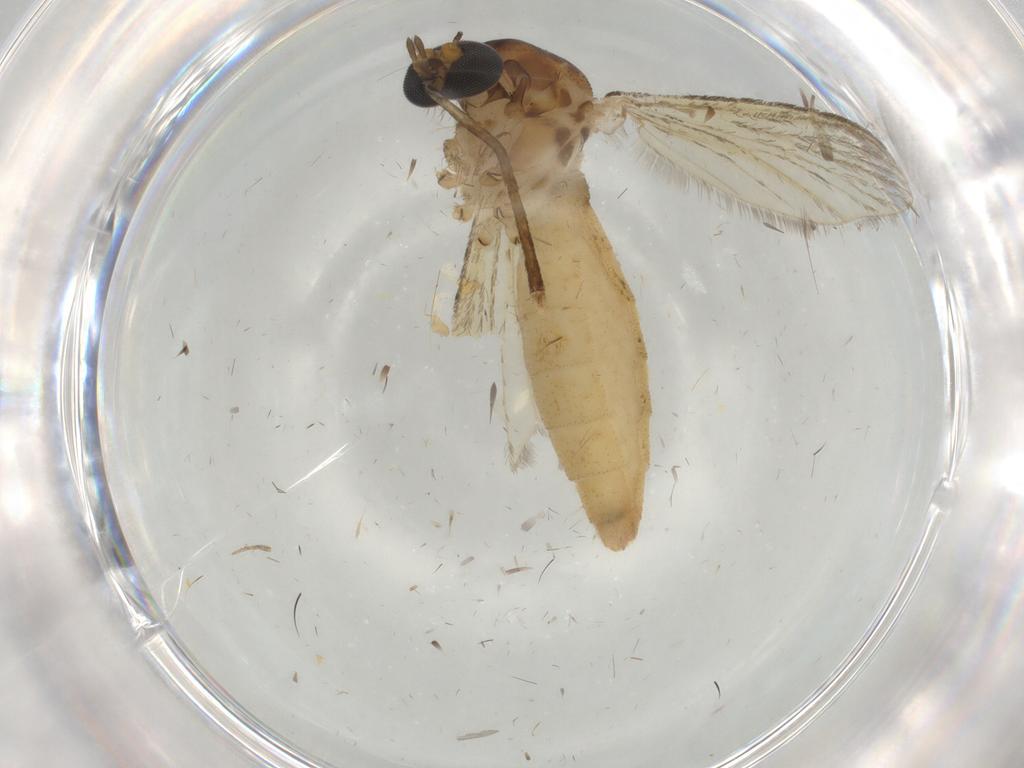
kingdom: Animalia
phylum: Arthropoda
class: Insecta
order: Diptera
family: Culicidae
